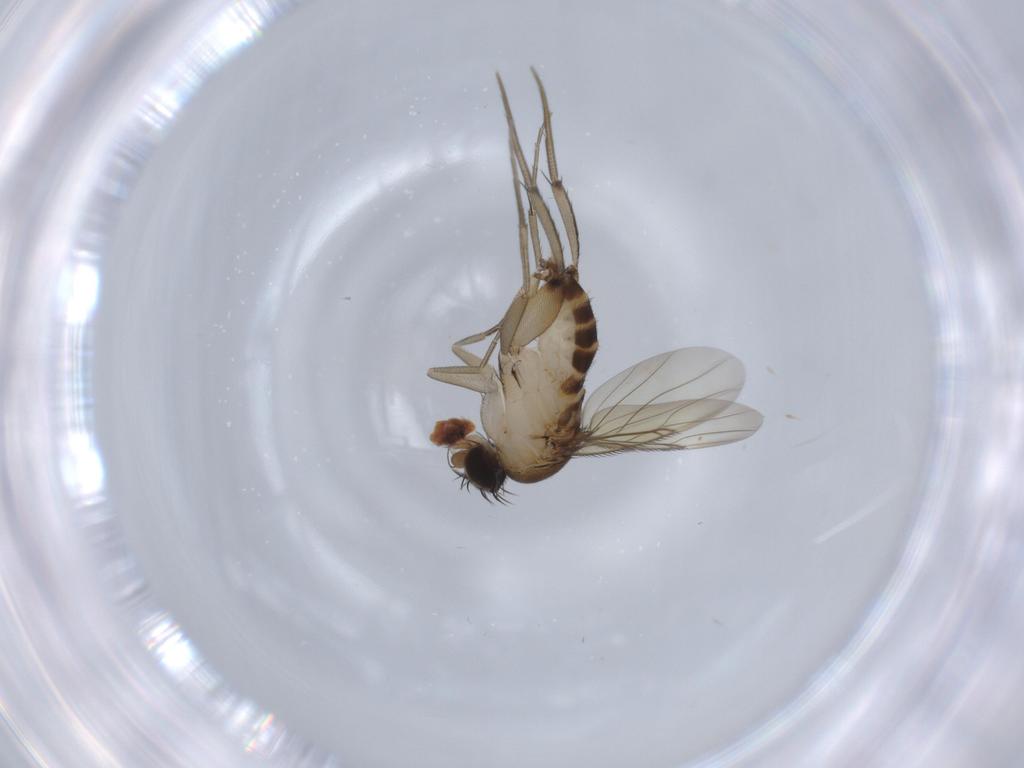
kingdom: Animalia
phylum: Arthropoda
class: Insecta
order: Diptera
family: Phoridae
